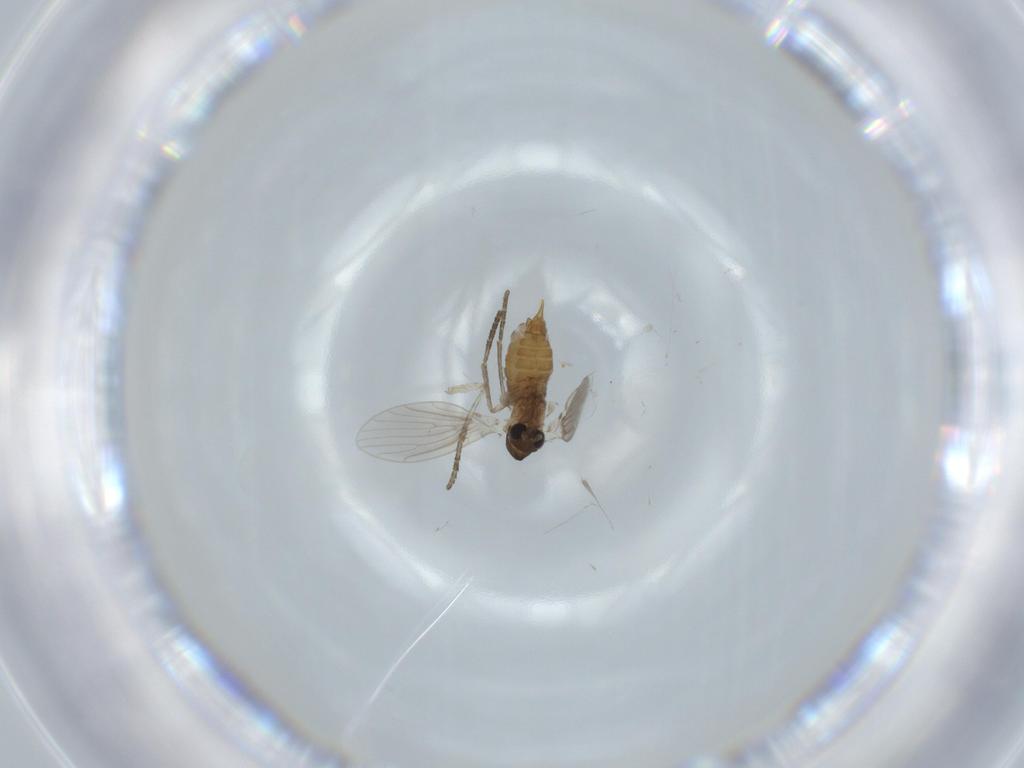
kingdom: Animalia
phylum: Arthropoda
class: Insecta
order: Diptera
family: Psychodidae
